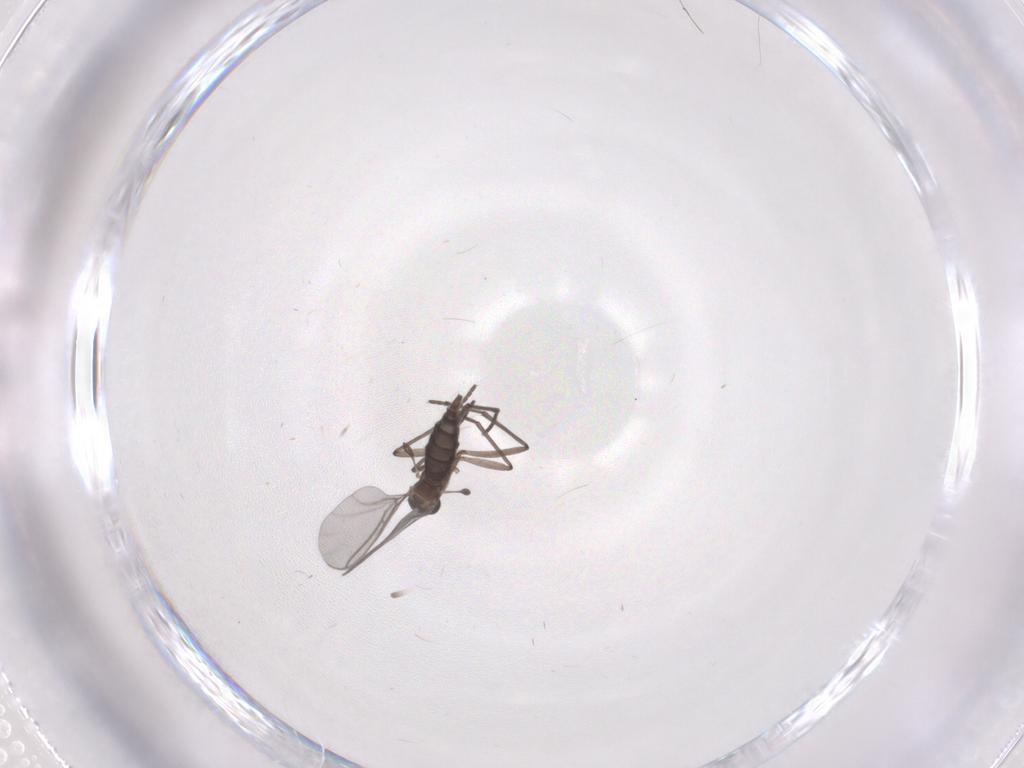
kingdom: Animalia
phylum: Arthropoda
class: Insecta
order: Diptera
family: Sciaridae
